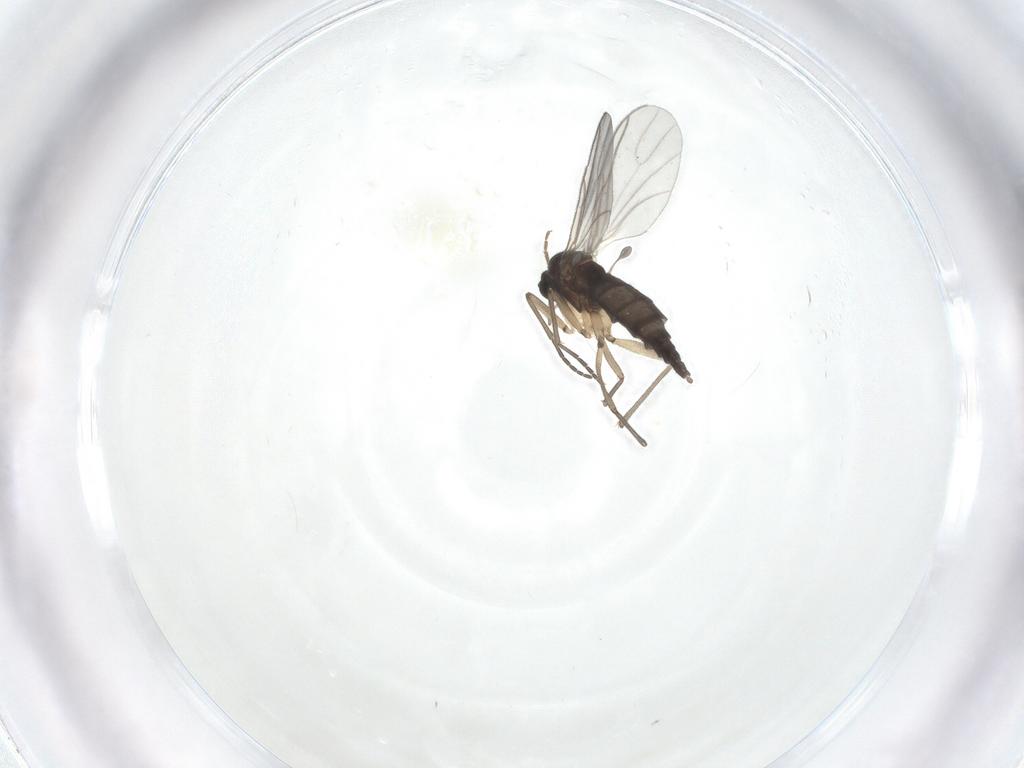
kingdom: Animalia
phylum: Arthropoda
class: Insecta
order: Diptera
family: Sciaridae
